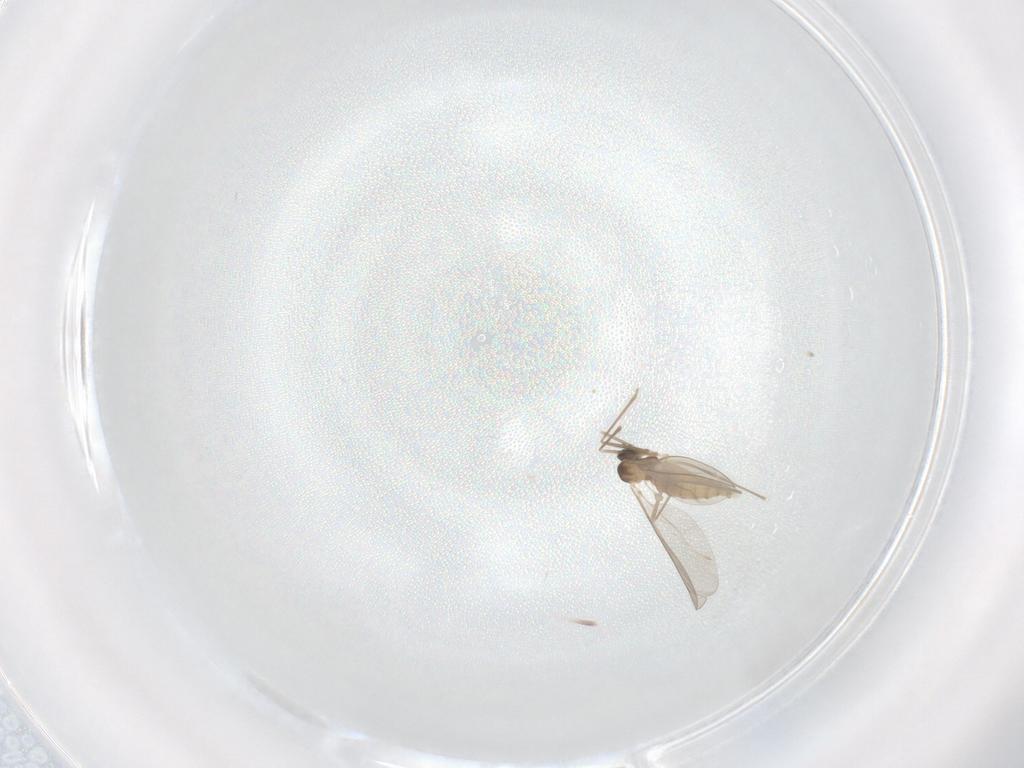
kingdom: Animalia
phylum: Arthropoda
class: Insecta
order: Diptera
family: Cecidomyiidae
